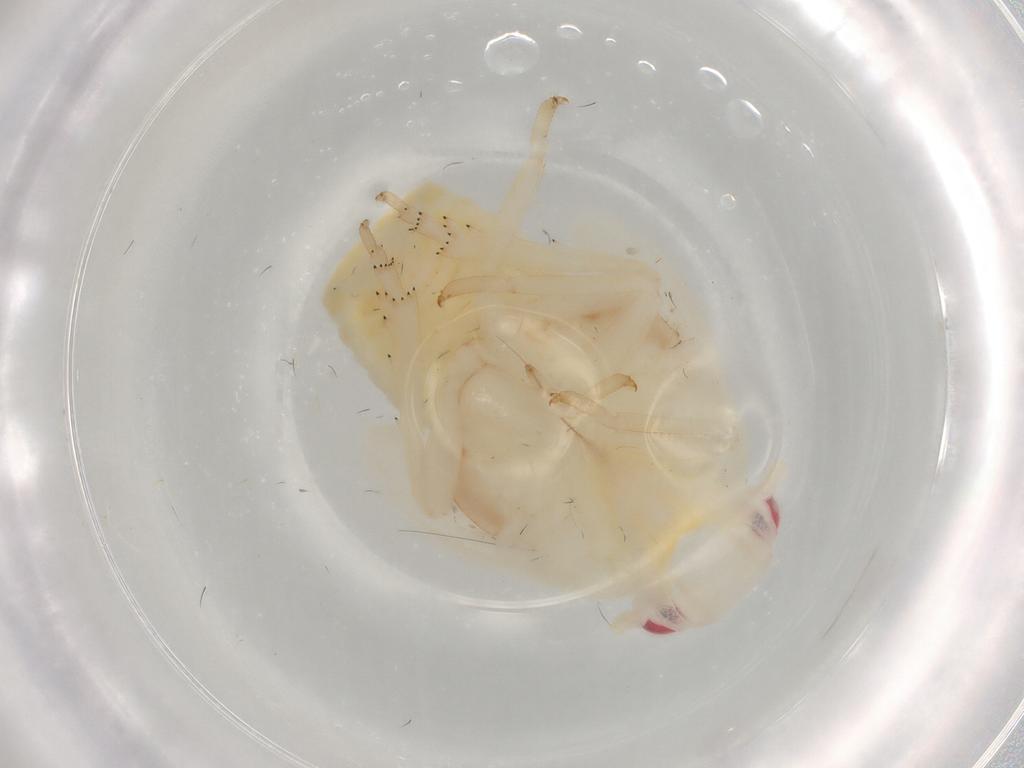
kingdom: Animalia
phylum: Arthropoda
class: Insecta
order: Hemiptera
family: Flatidae
